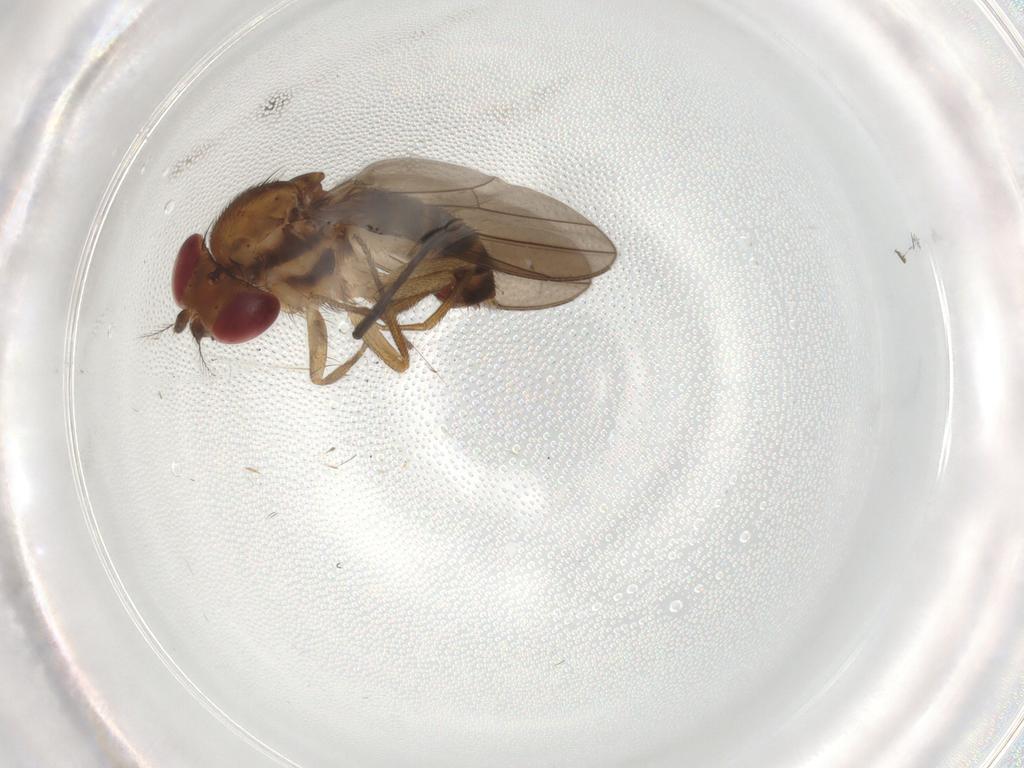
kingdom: Animalia
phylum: Arthropoda
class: Insecta
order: Diptera
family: Drosophilidae
